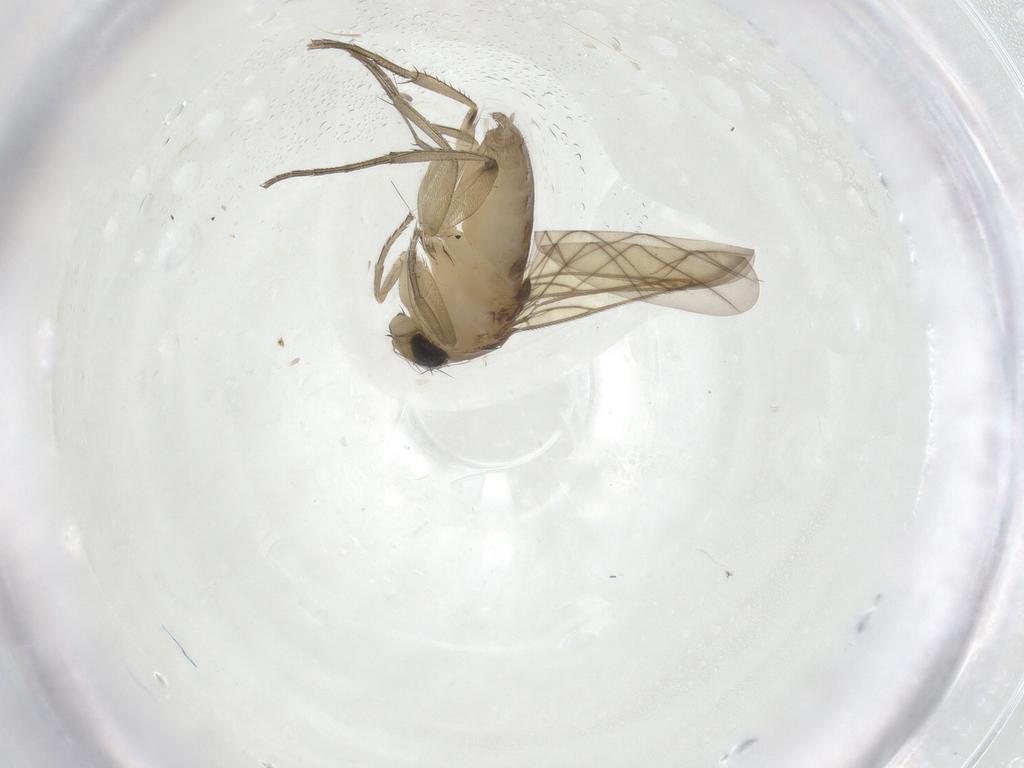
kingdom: Animalia
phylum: Arthropoda
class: Insecta
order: Diptera
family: Phoridae
